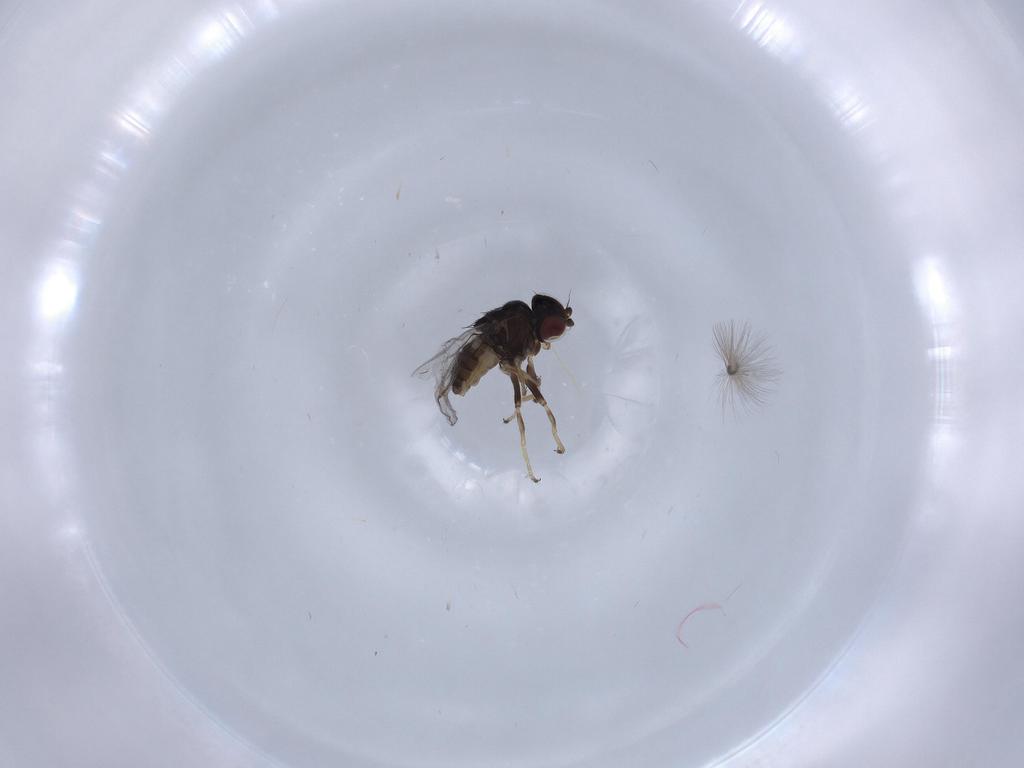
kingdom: Animalia
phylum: Arthropoda
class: Insecta
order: Diptera
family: Chloropidae
